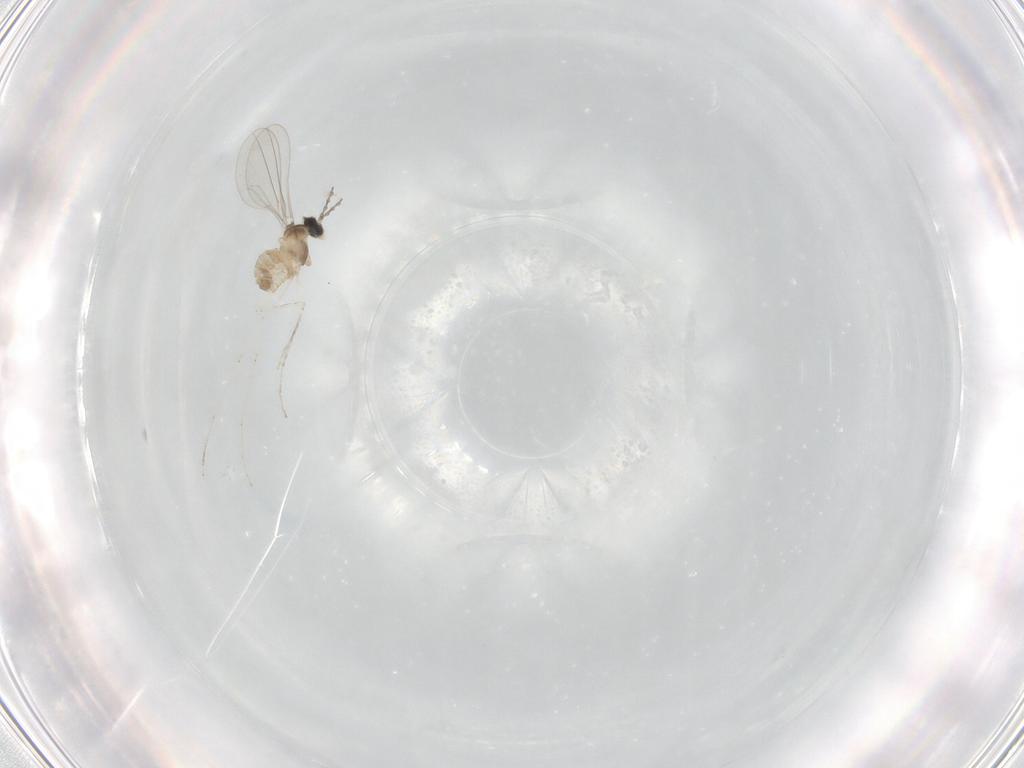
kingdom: Animalia
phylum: Arthropoda
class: Insecta
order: Diptera
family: Cecidomyiidae
